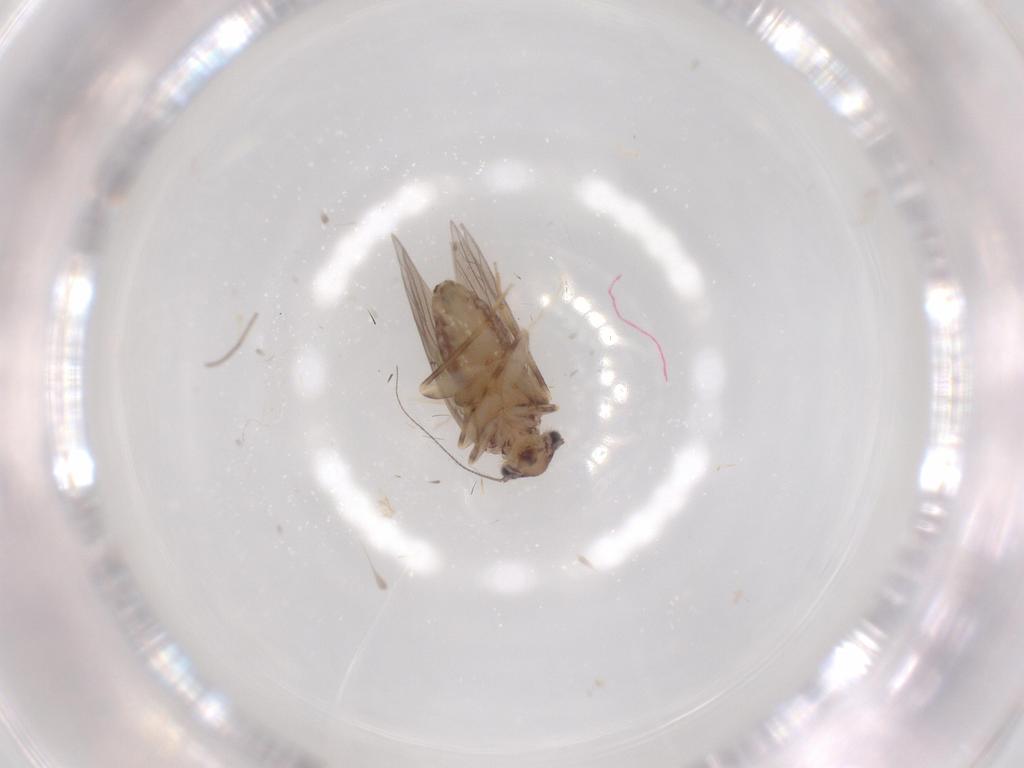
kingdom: Animalia
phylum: Arthropoda
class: Insecta
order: Psocodea
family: Lepidopsocidae
